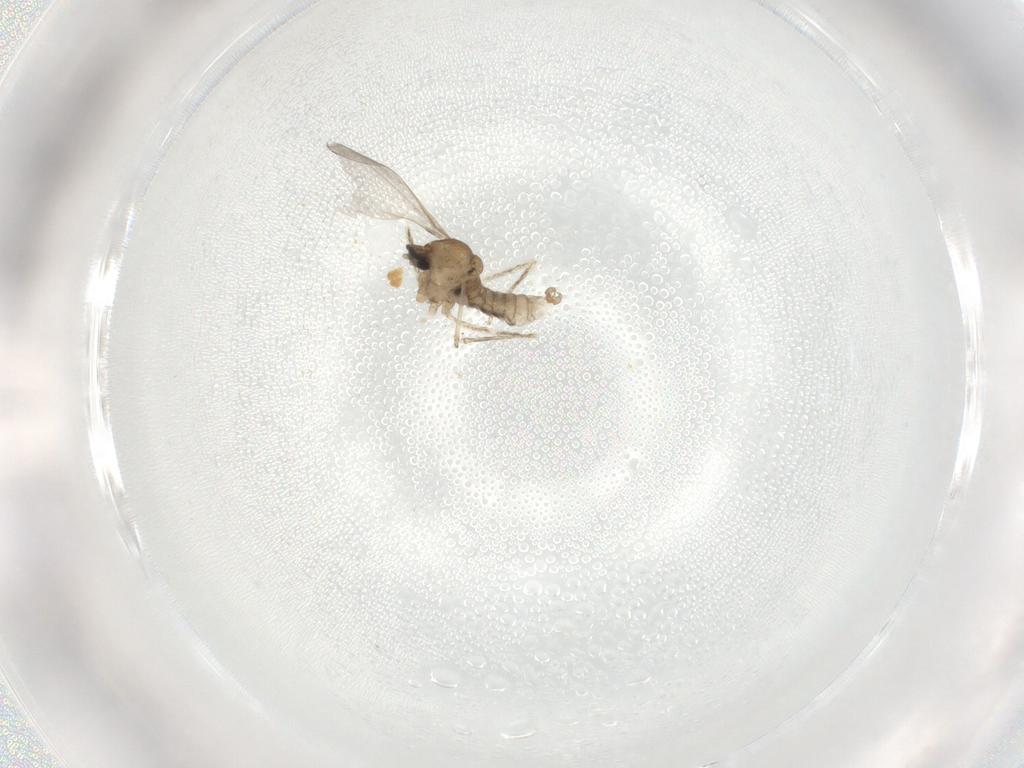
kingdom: Animalia
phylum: Arthropoda
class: Insecta
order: Diptera
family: Cecidomyiidae
